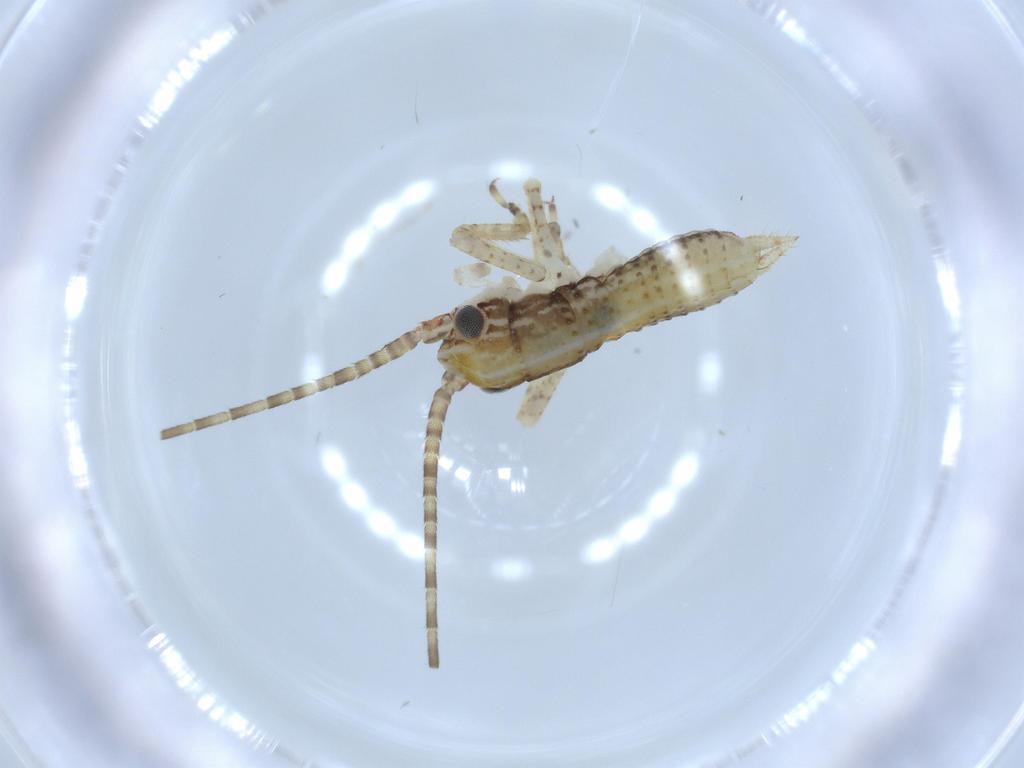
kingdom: Animalia
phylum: Arthropoda
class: Insecta
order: Orthoptera
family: Gryllidae
